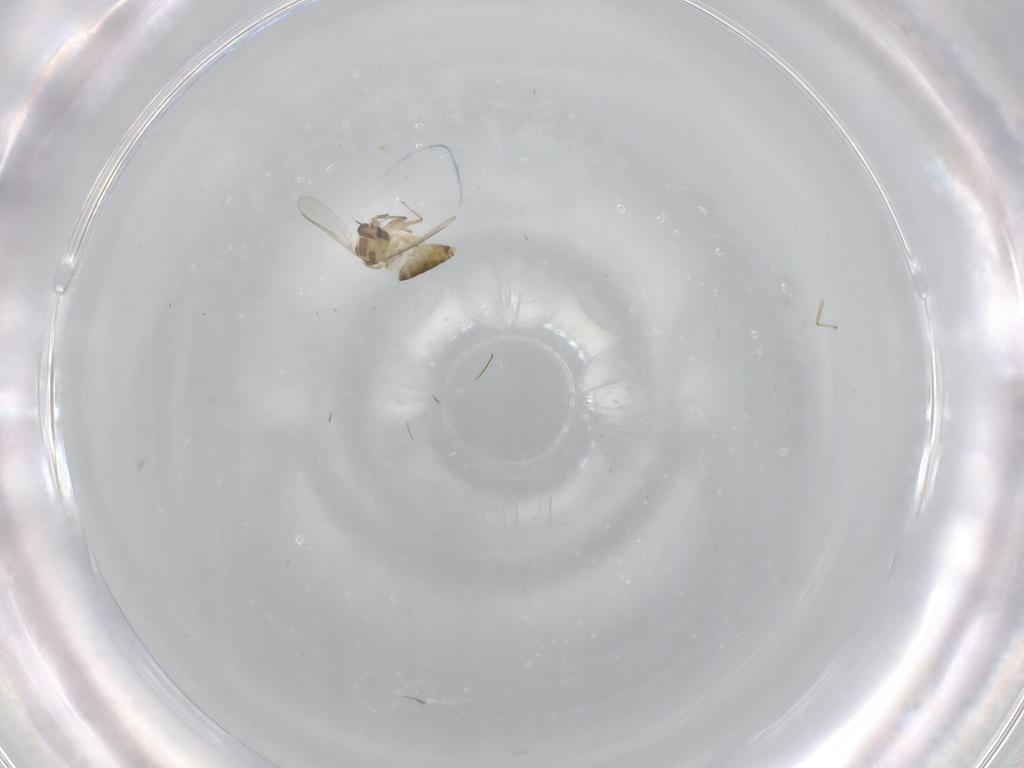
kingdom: Animalia
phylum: Arthropoda
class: Insecta
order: Diptera
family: Chironomidae
